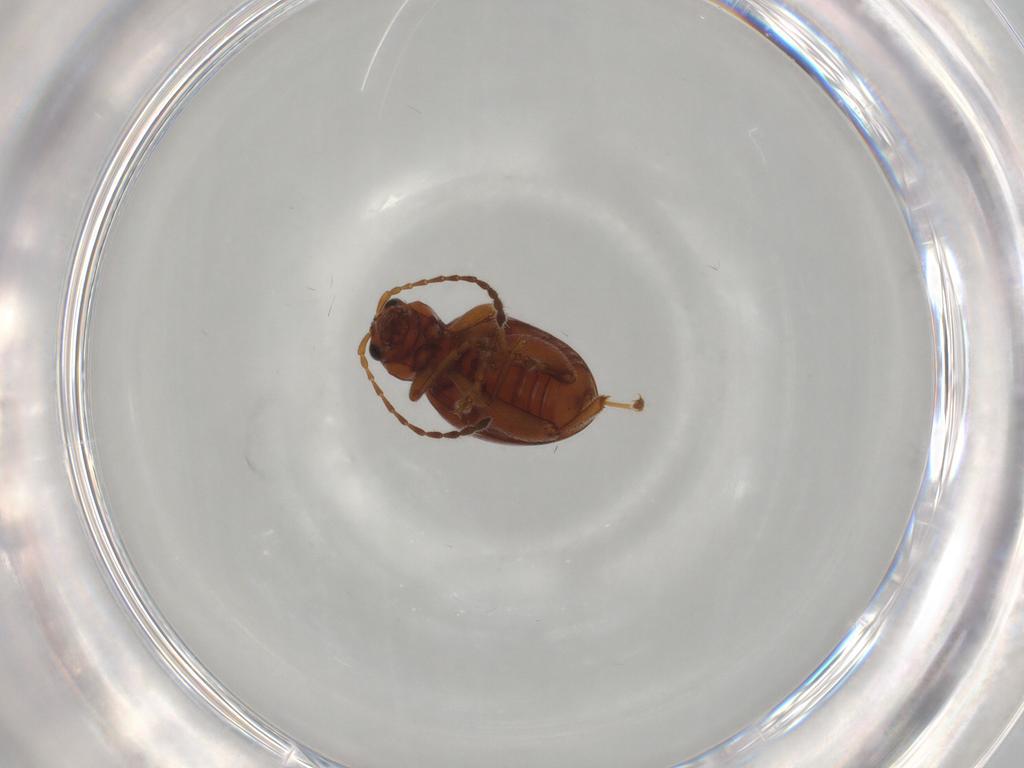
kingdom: Animalia
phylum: Arthropoda
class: Insecta
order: Coleoptera
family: Chrysomelidae
